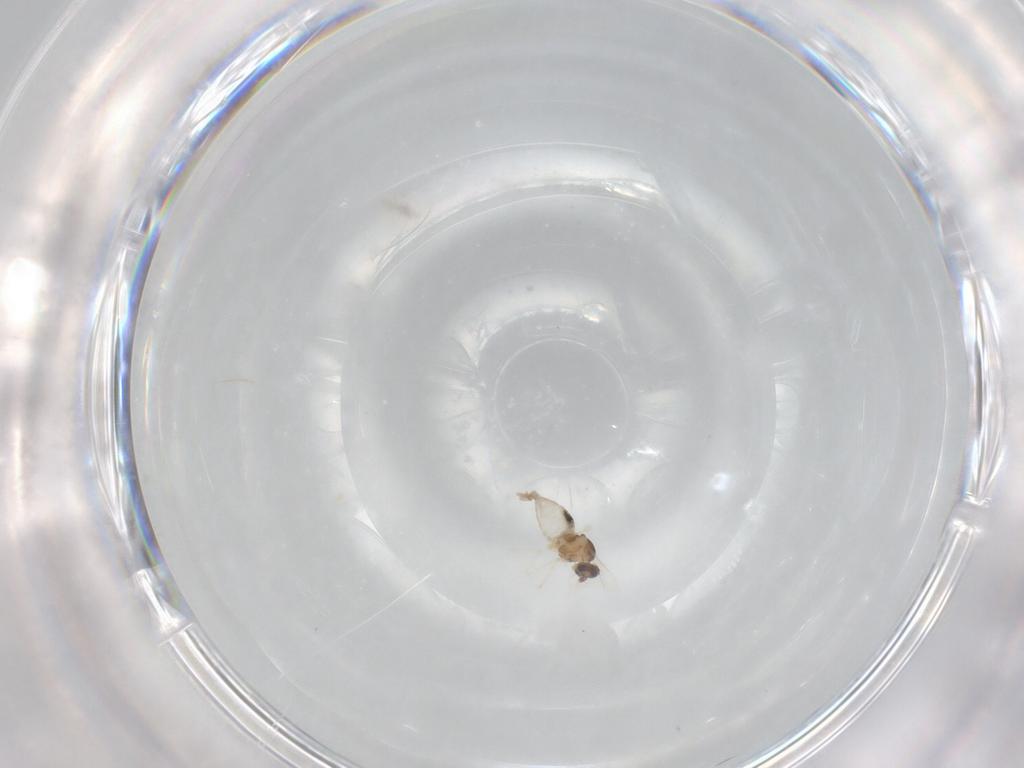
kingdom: Animalia
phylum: Arthropoda
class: Insecta
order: Diptera
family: Cecidomyiidae
